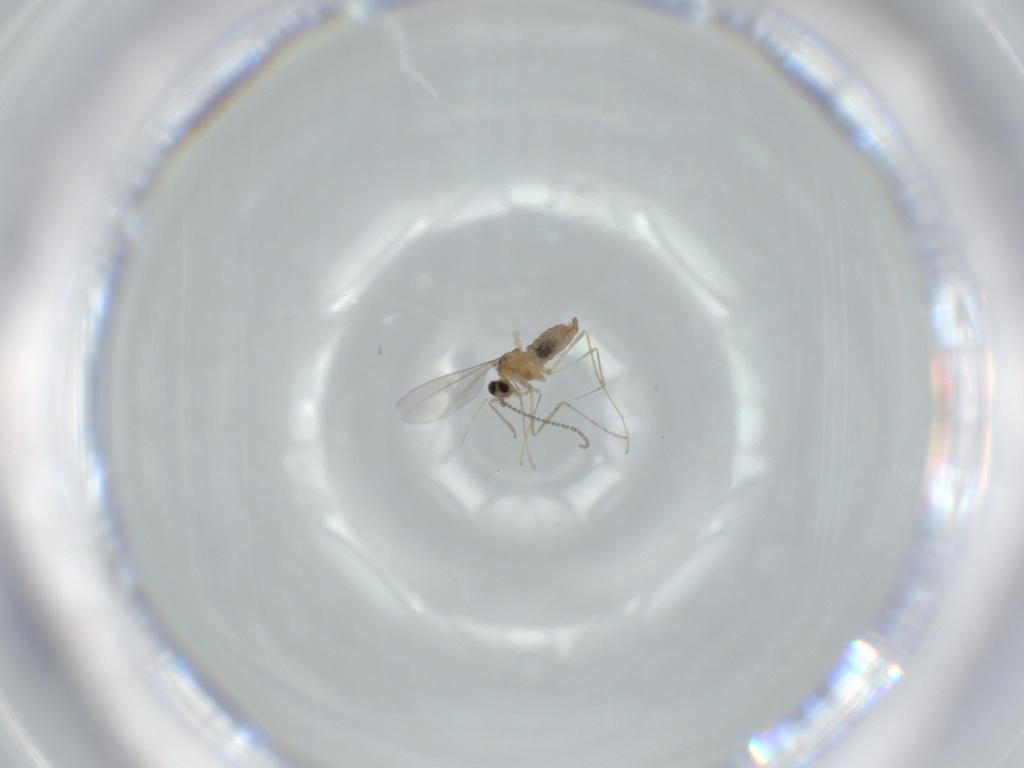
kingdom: Animalia
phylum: Arthropoda
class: Insecta
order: Diptera
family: Cecidomyiidae
